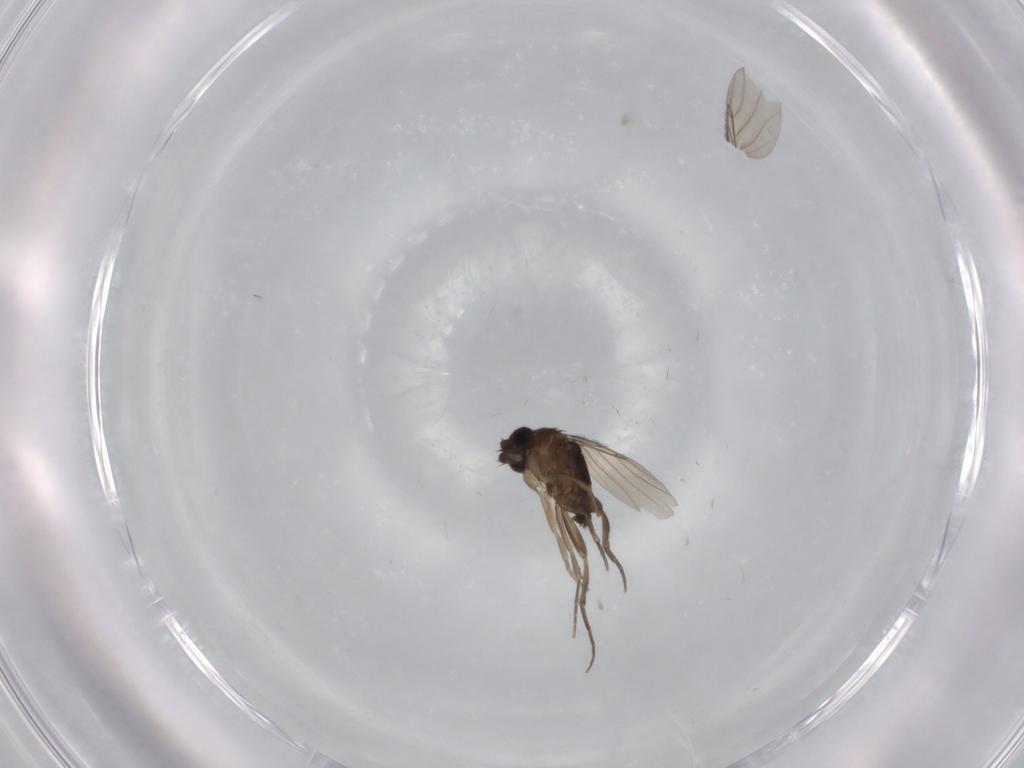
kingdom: Animalia
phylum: Arthropoda
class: Insecta
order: Diptera
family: Sciaridae
